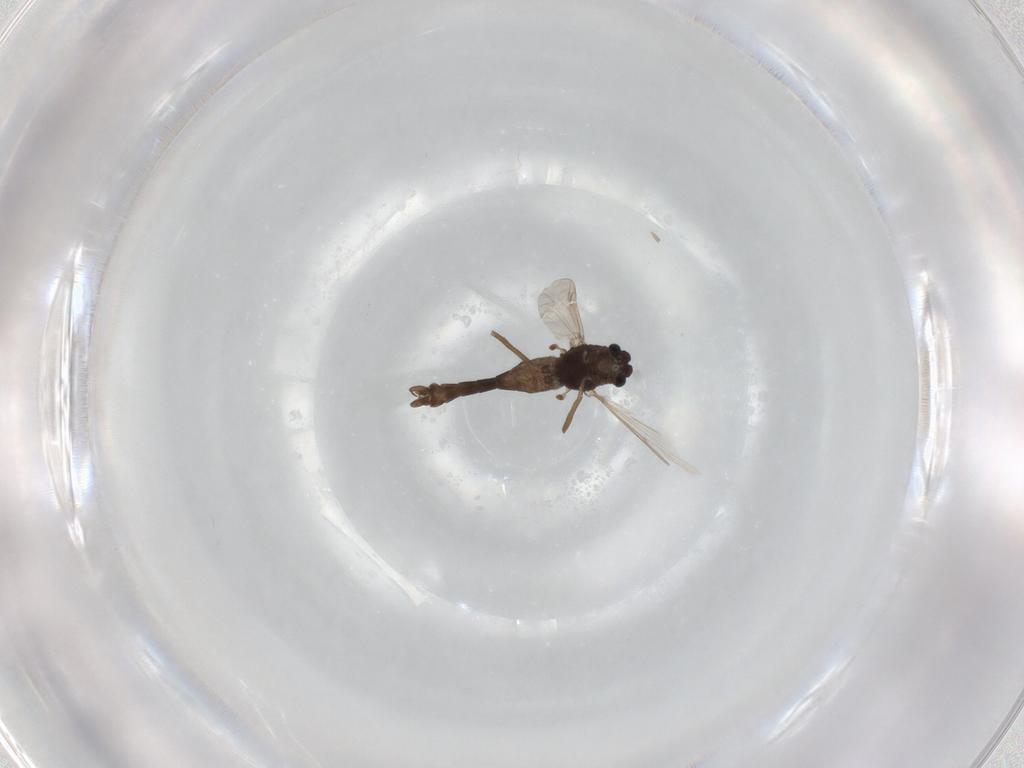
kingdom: Animalia
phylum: Arthropoda
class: Insecta
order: Diptera
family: Chironomidae
